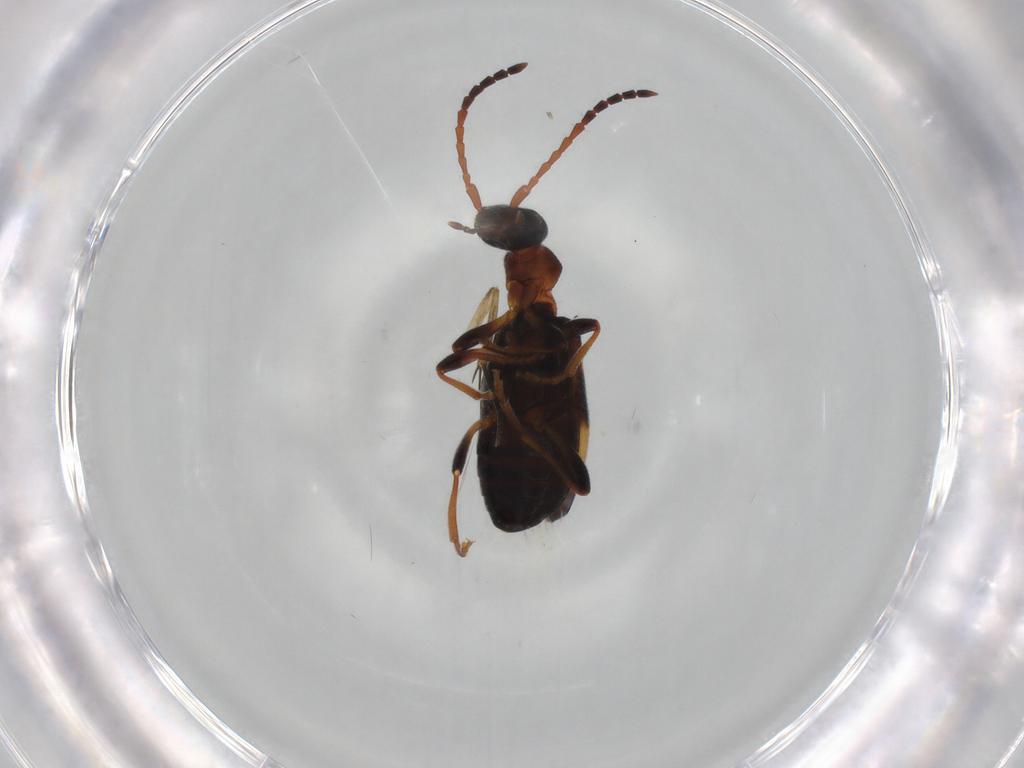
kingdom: Animalia
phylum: Arthropoda
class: Insecta
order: Coleoptera
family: Anthicidae
